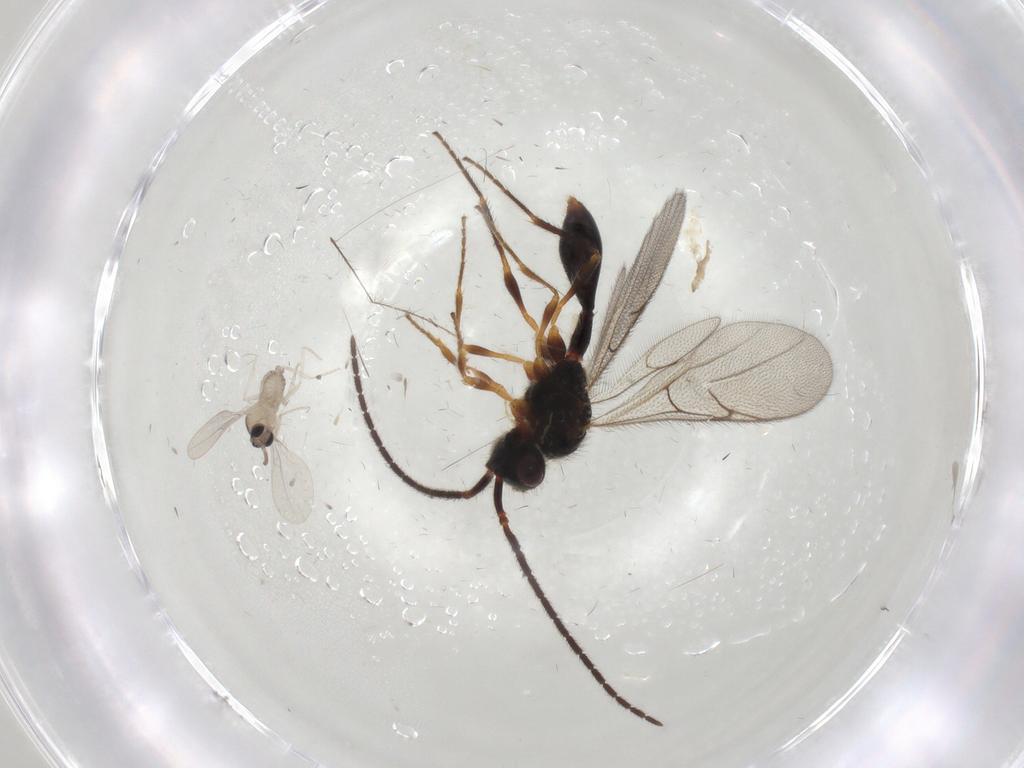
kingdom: Animalia
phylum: Arthropoda
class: Insecta
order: Diptera
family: Cecidomyiidae
